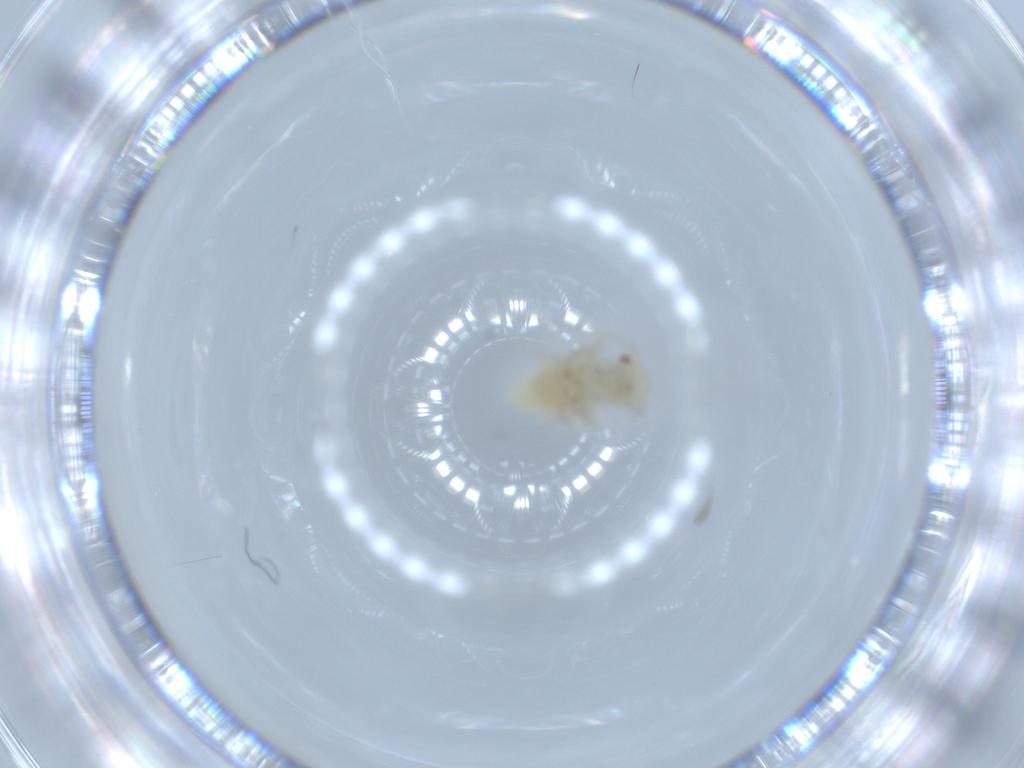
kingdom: Animalia
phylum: Arthropoda
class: Insecta
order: Psocodea
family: Caeciliusidae
